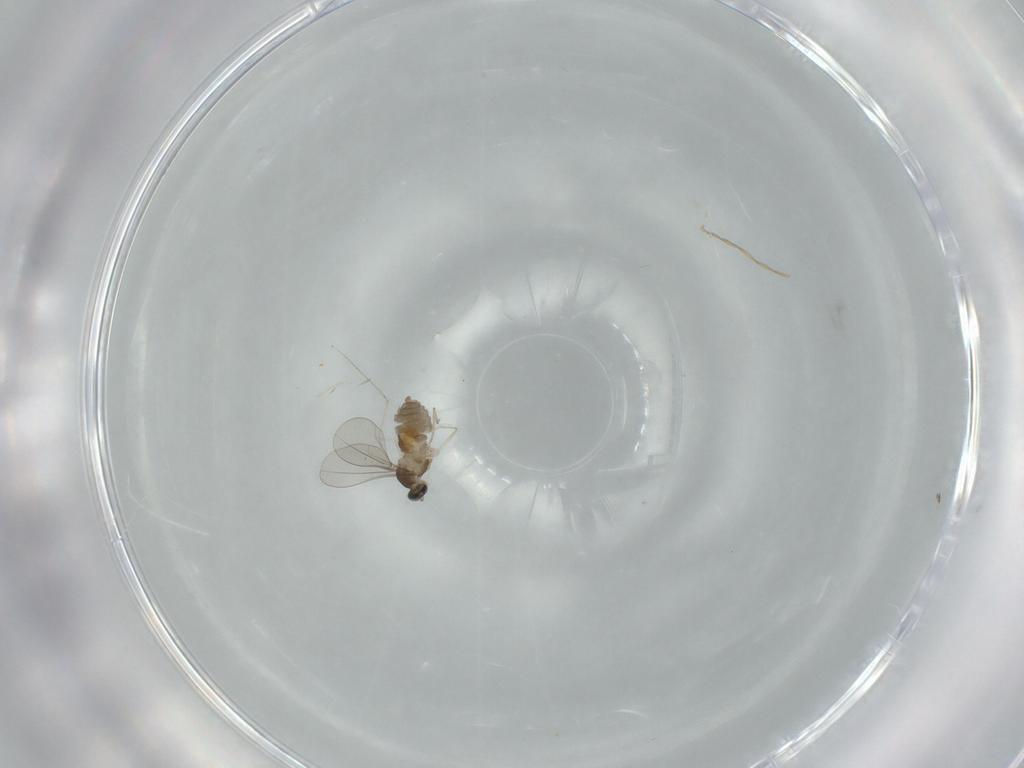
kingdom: Animalia
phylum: Arthropoda
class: Insecta
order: Diptera
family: Cecidomyiidae
